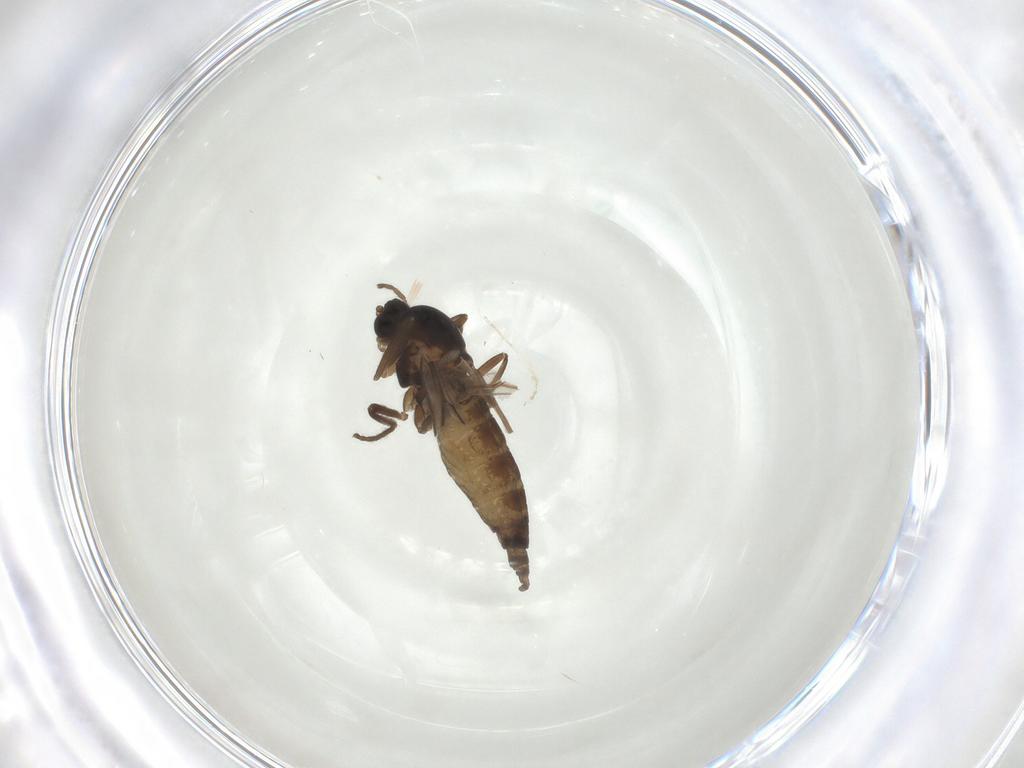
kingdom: Animalia
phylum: Arthropoda
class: Insecta
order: Diptera
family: Cecidomyiidae
